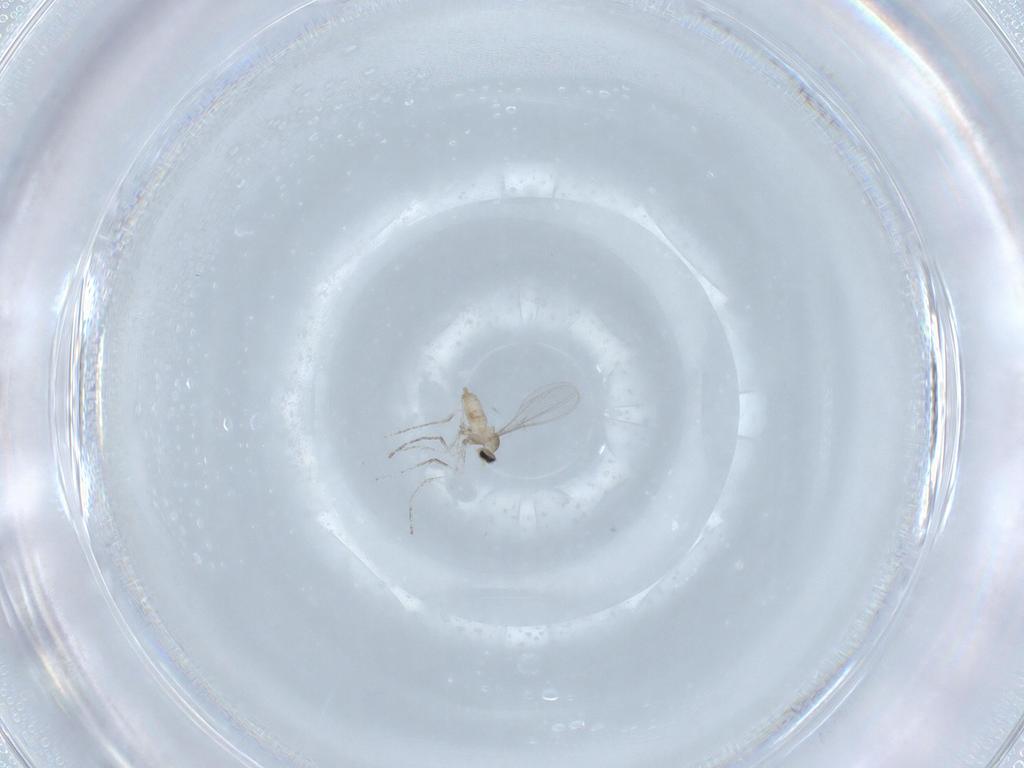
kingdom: Animalia
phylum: Arthropoda
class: Insecta
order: Diptera
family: Cecidomyiidae
